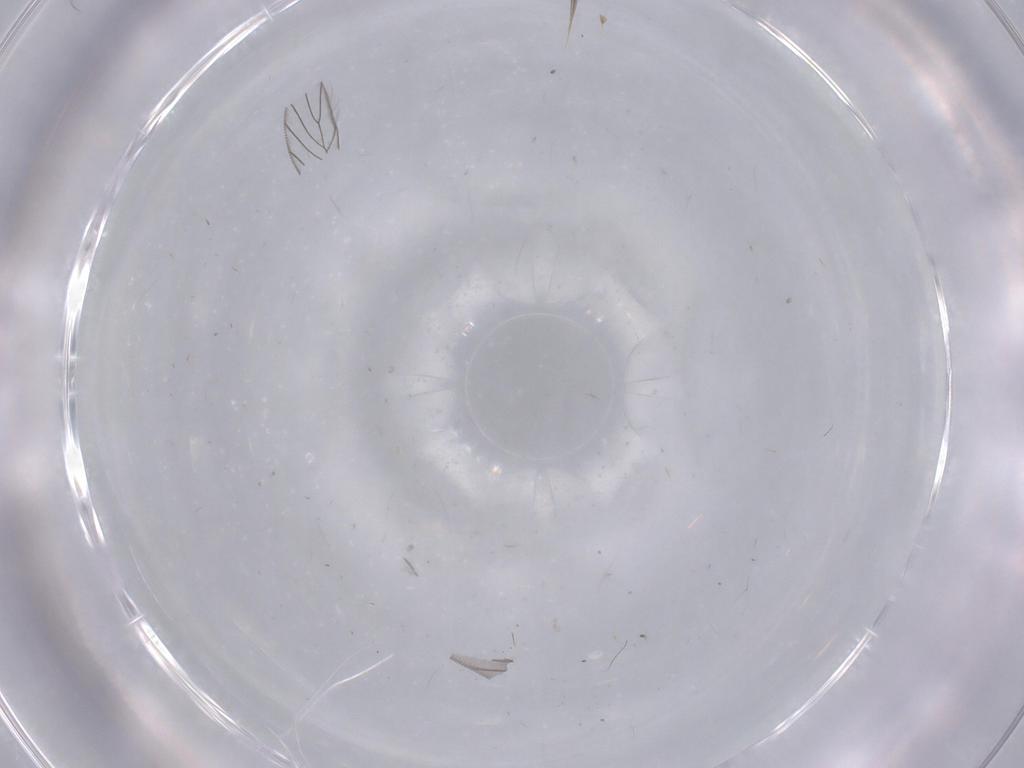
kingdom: Animalia
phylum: Arthropoda
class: Insecta
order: Psocodea
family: Lepidopsocidae
